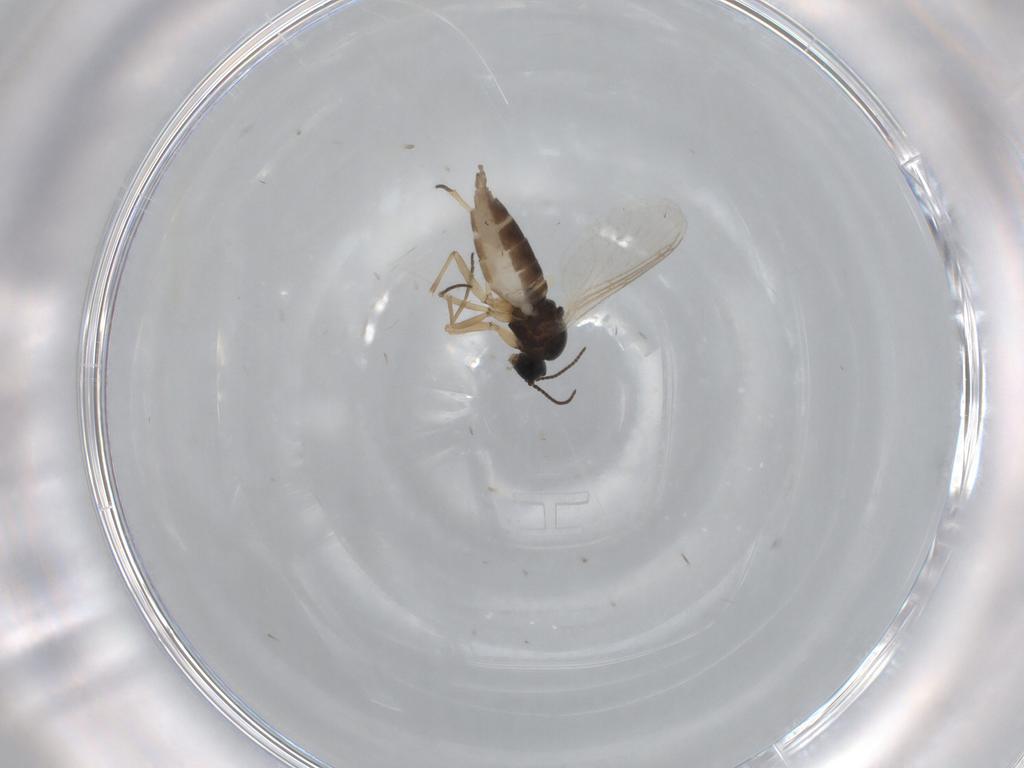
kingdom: Animalia
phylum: Arthropoda
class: Insecta
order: Diptera
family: Sciaridae
